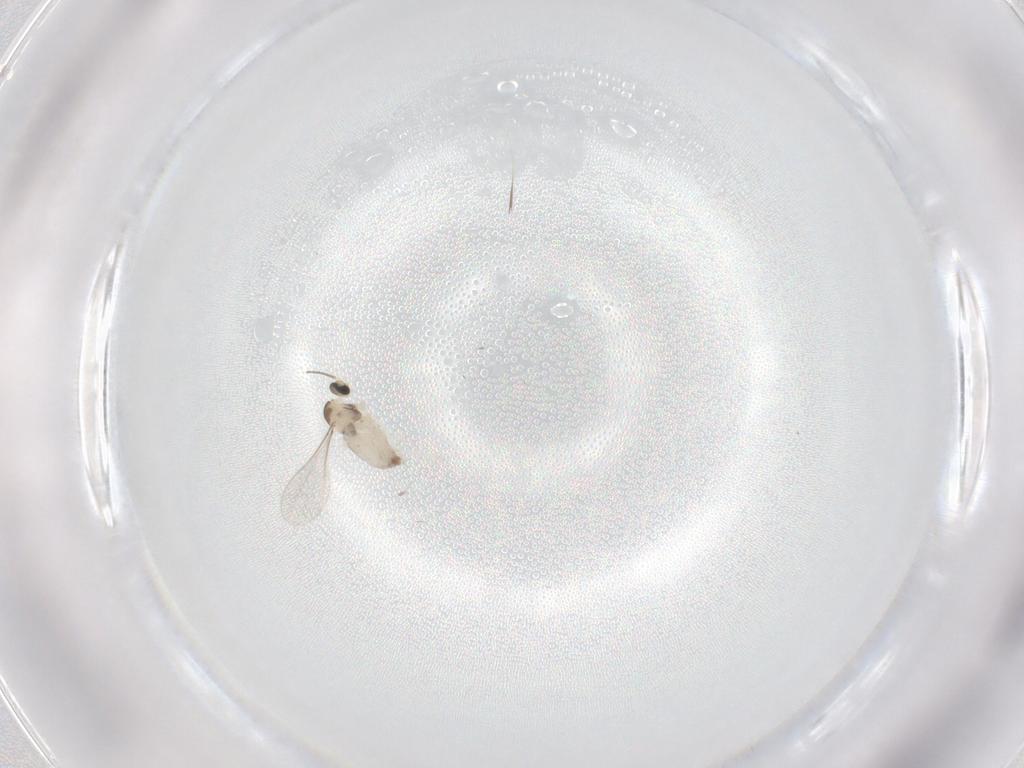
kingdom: Animalia
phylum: Arthropoda
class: Insecta
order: Diptera
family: Cecidomyiidae
